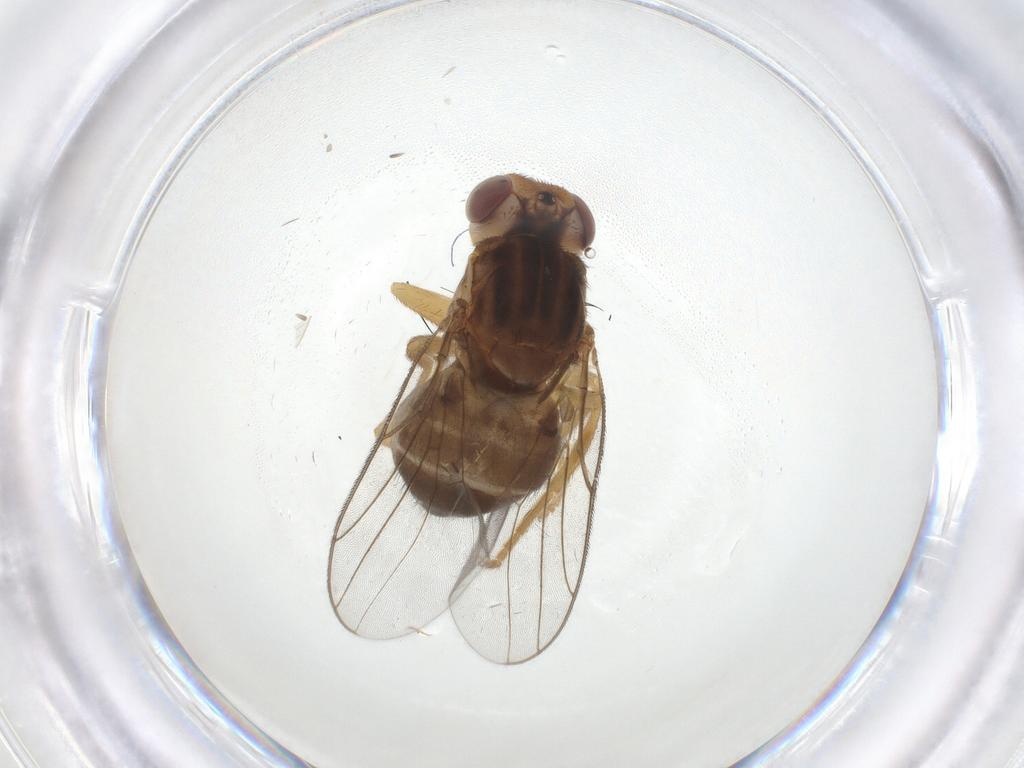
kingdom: Animalia
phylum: Arthropoda
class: Insecta
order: Diptera
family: Chloropidae
